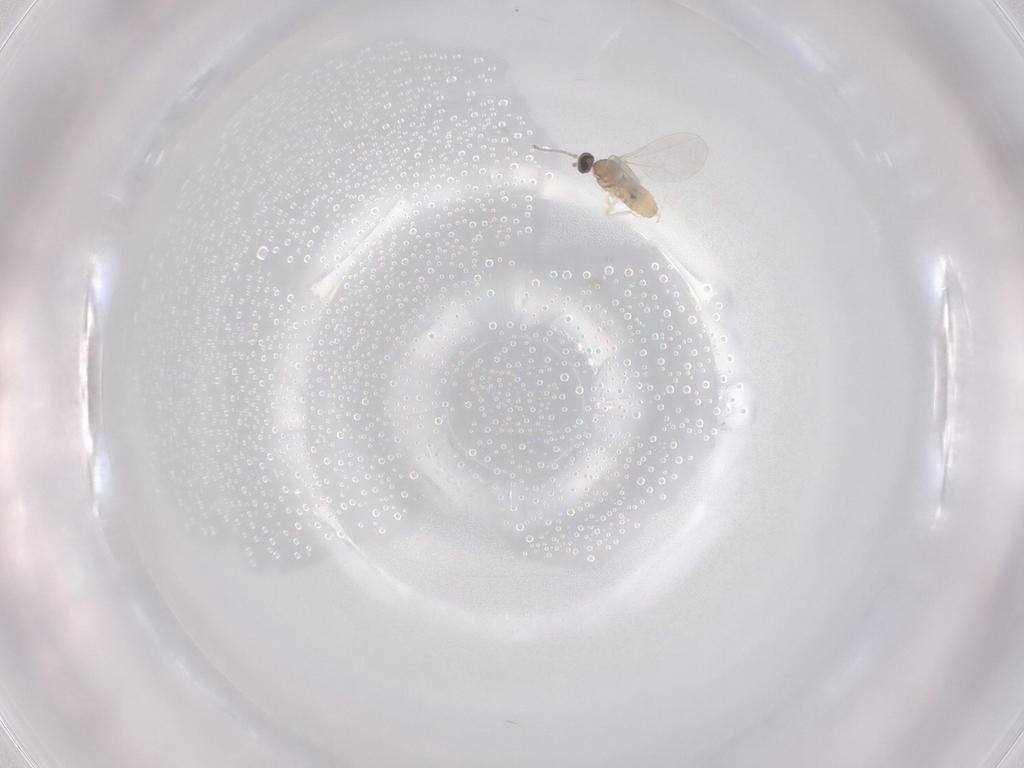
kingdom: Animalia
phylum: Arthropoda
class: Insecta
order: Diptera
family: Cecidomyiidae
